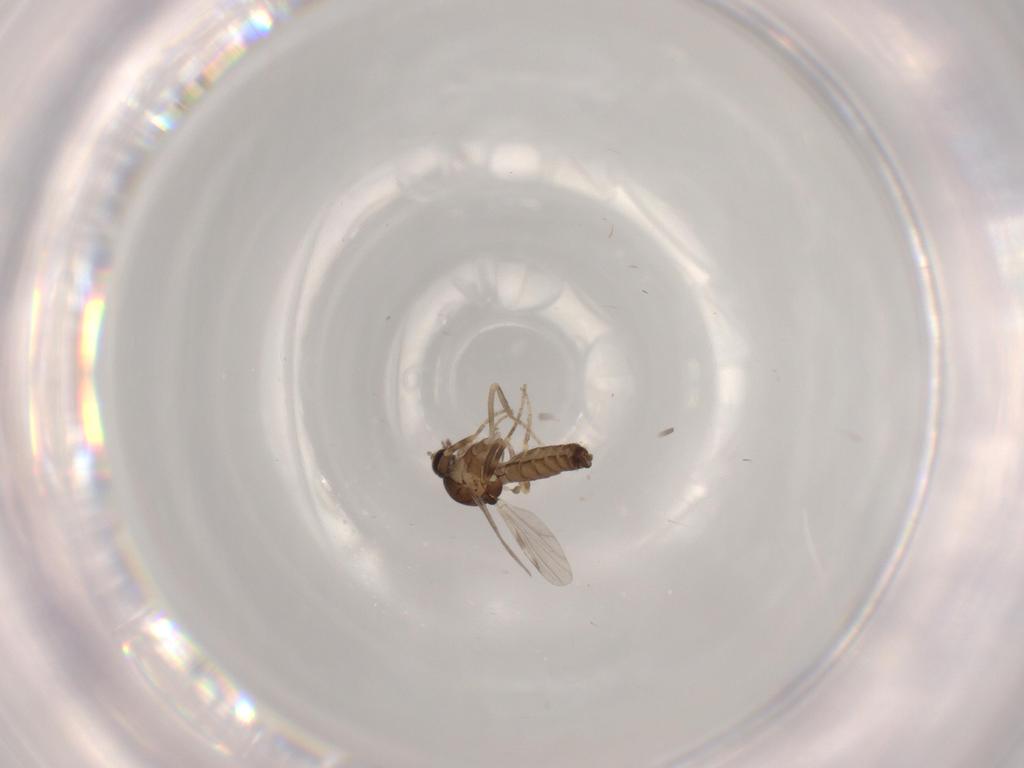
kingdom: Animalia
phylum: Arthropoda
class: Insecta
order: Diptera
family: Ceratopogonidae
